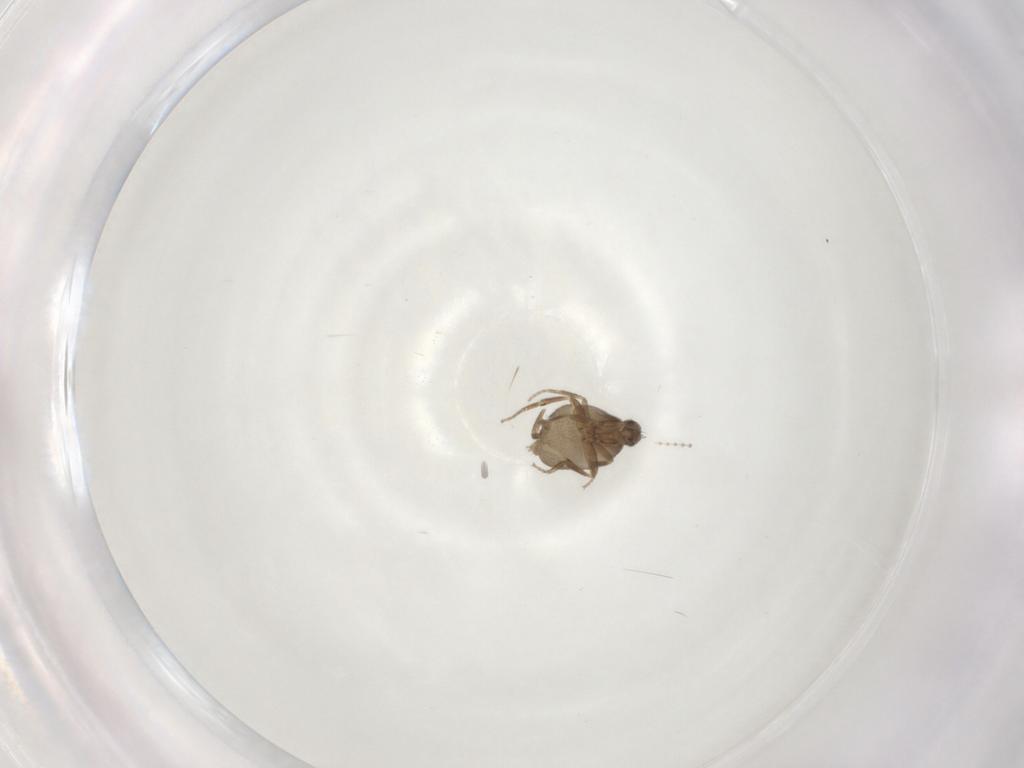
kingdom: Animalia
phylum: Arthropoda
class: Insecta
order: Diptera
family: Phoridae
